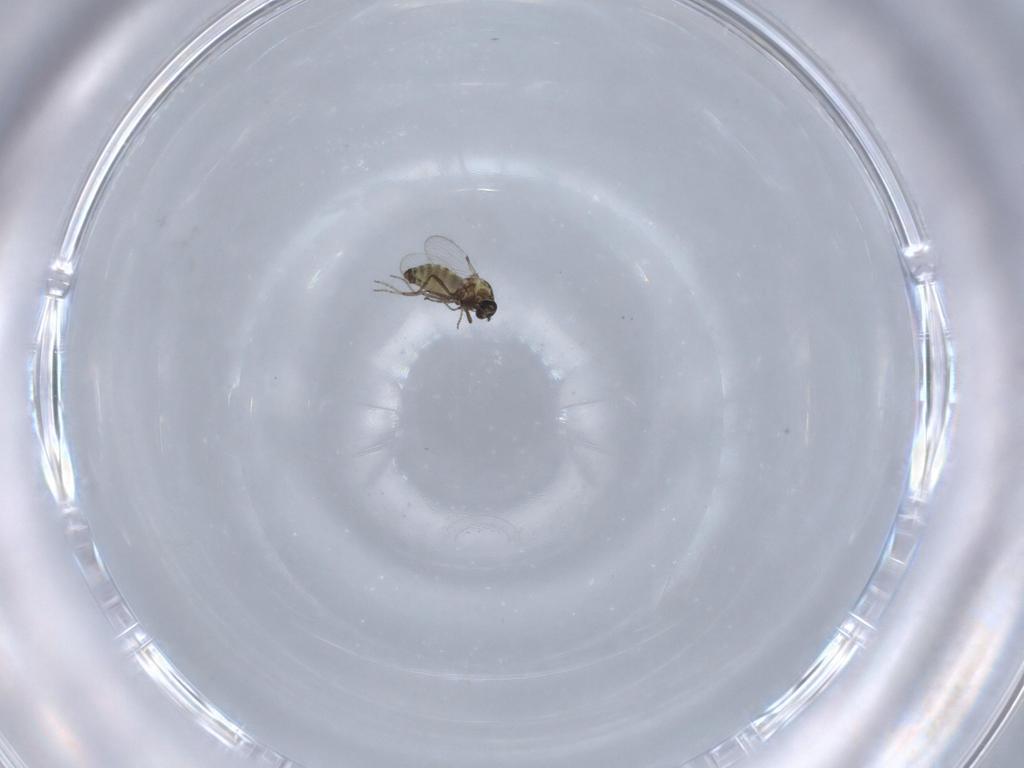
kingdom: Animalia
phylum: Arthropoda
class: Insecta
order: Diptera
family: Ceratopogonidae
